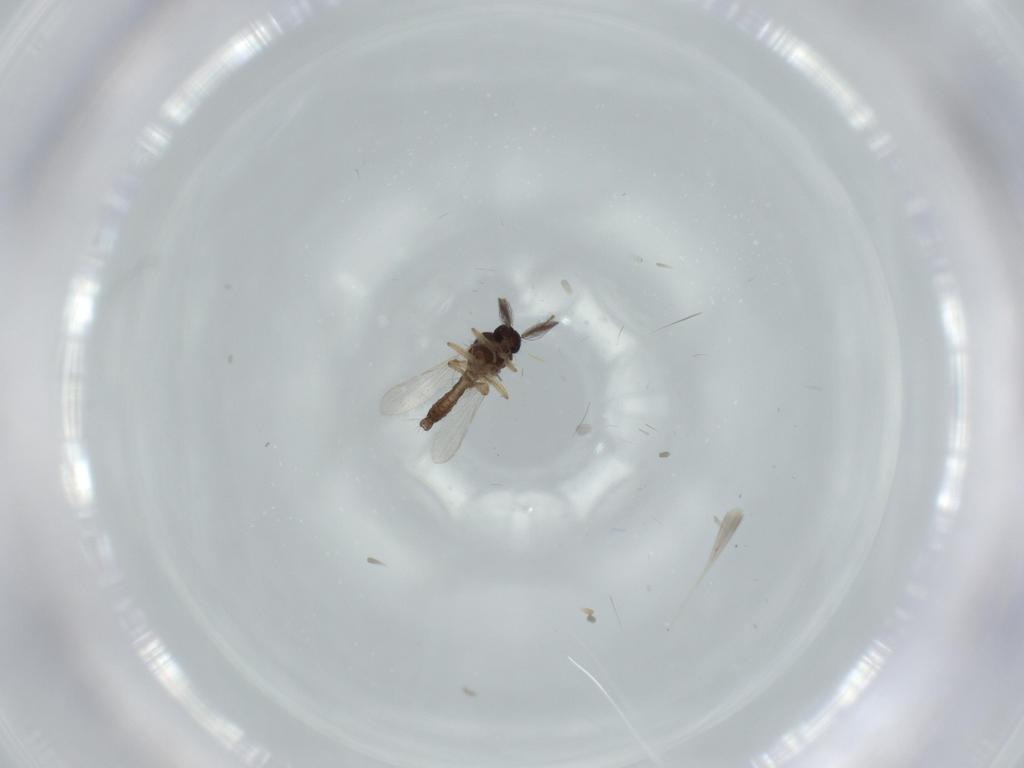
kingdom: Animalia
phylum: Arthropoda
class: Insecta
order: Diptera
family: Ceratopogonidae
